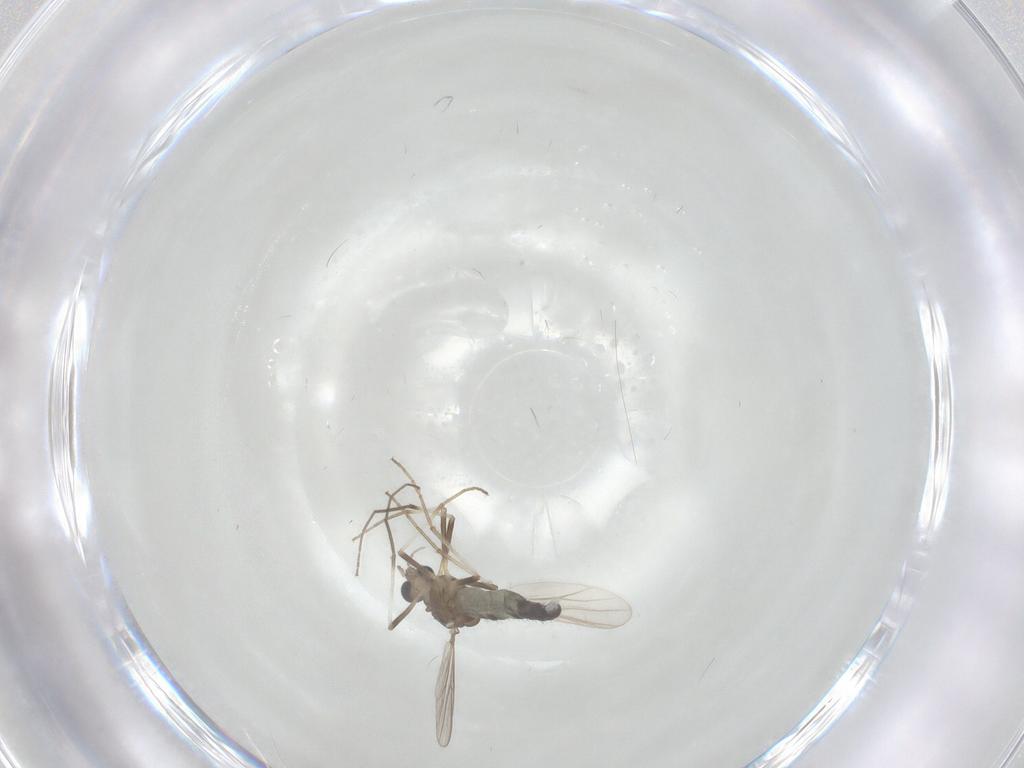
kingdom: Animalia
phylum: Arthropoda
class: Insecta
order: Diptera
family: Chironomidae
